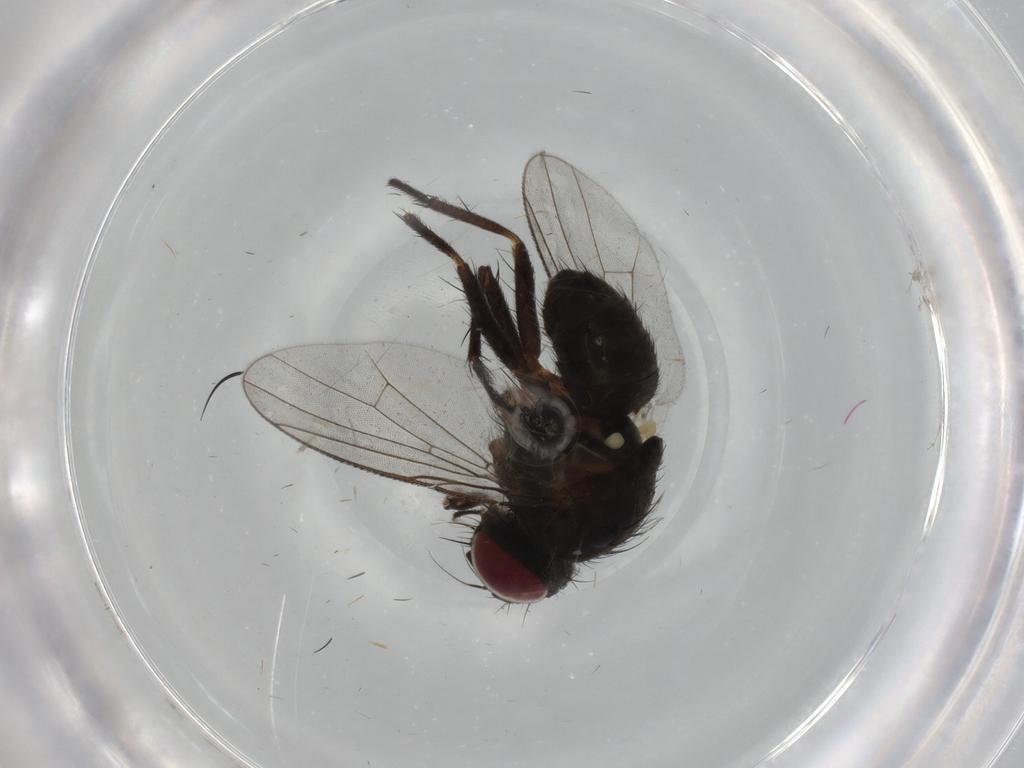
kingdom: Animalia
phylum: Arthropoda
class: Insecta
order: Diptera
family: Muscidae
